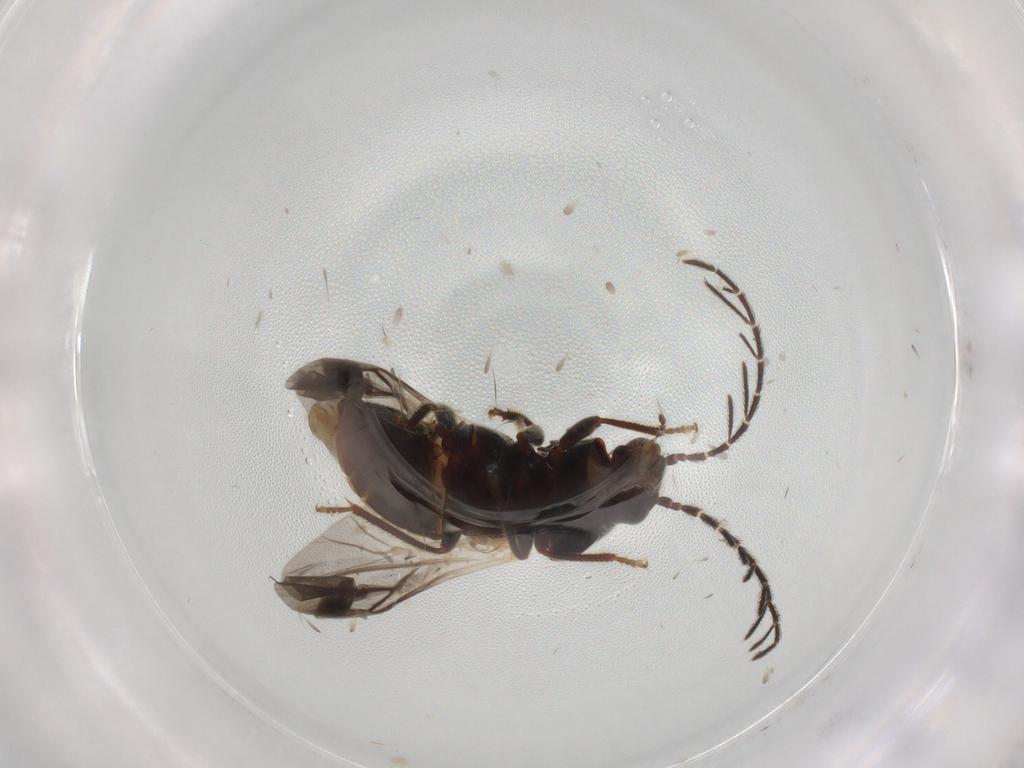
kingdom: Animalia
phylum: Arthropoda
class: Insecta
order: Coleoptera
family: Ptilodactylidae
